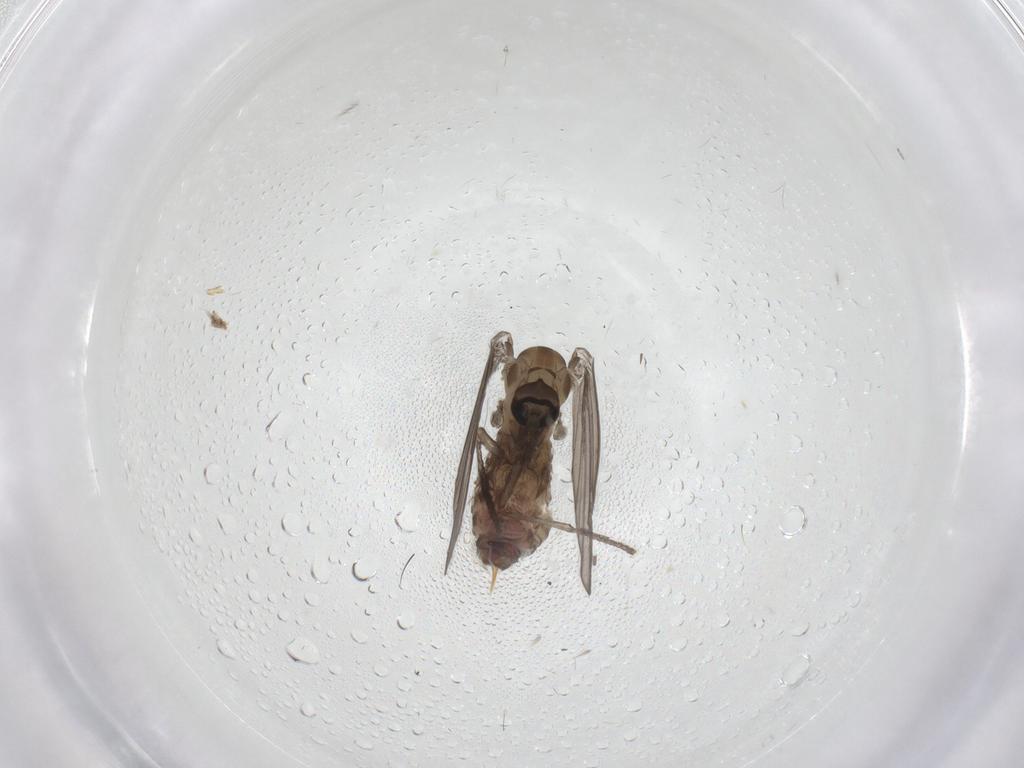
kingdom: Animalia
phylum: Arthropoda
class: Insecta
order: Diptera
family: Psychodidae
